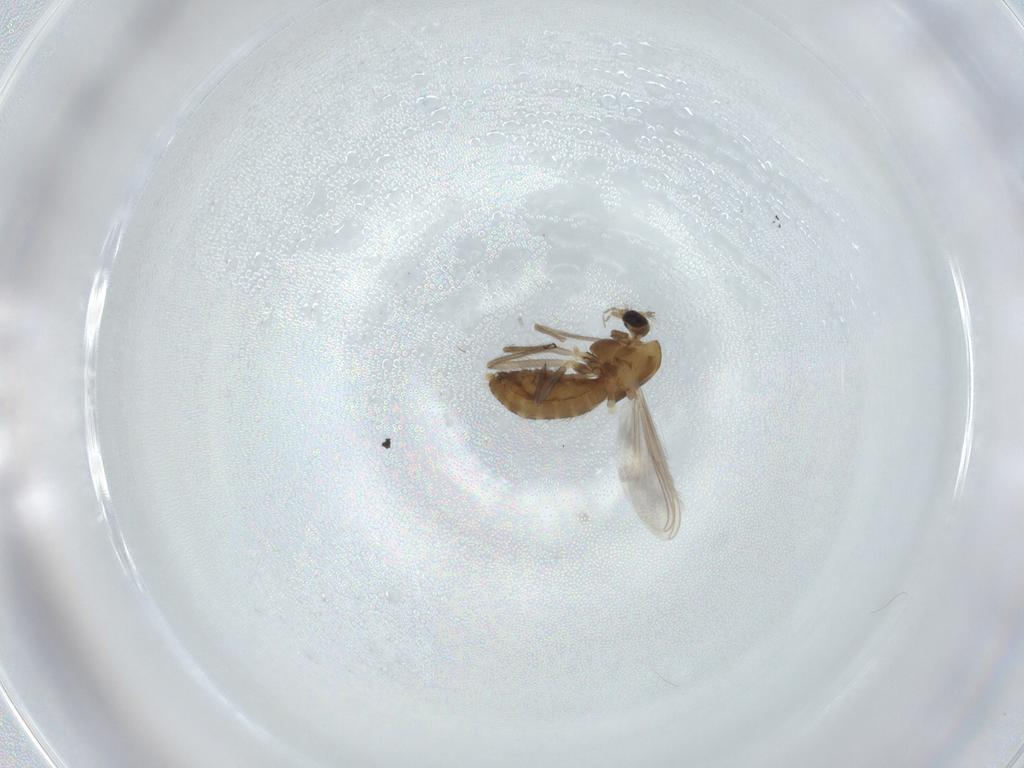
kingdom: Animalia
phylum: Arthropoda
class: Insecta
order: Diptera
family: Chironomidae
